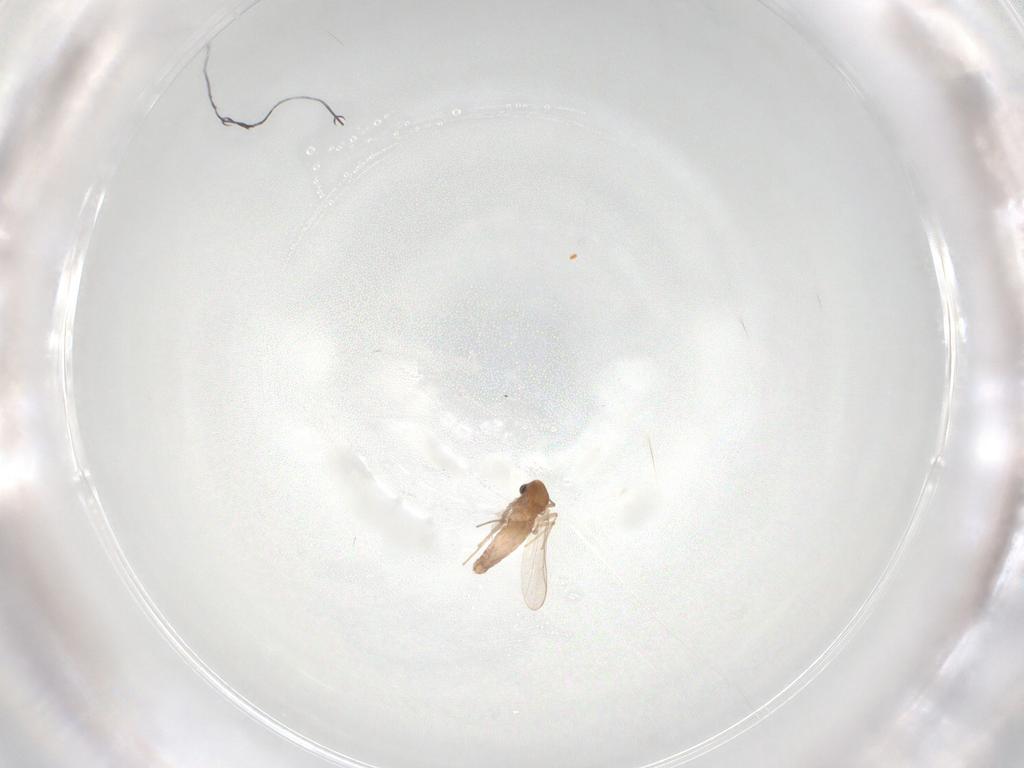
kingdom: Animalia
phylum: Arthropoda
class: Insecta
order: Diptera
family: Chironomidae
